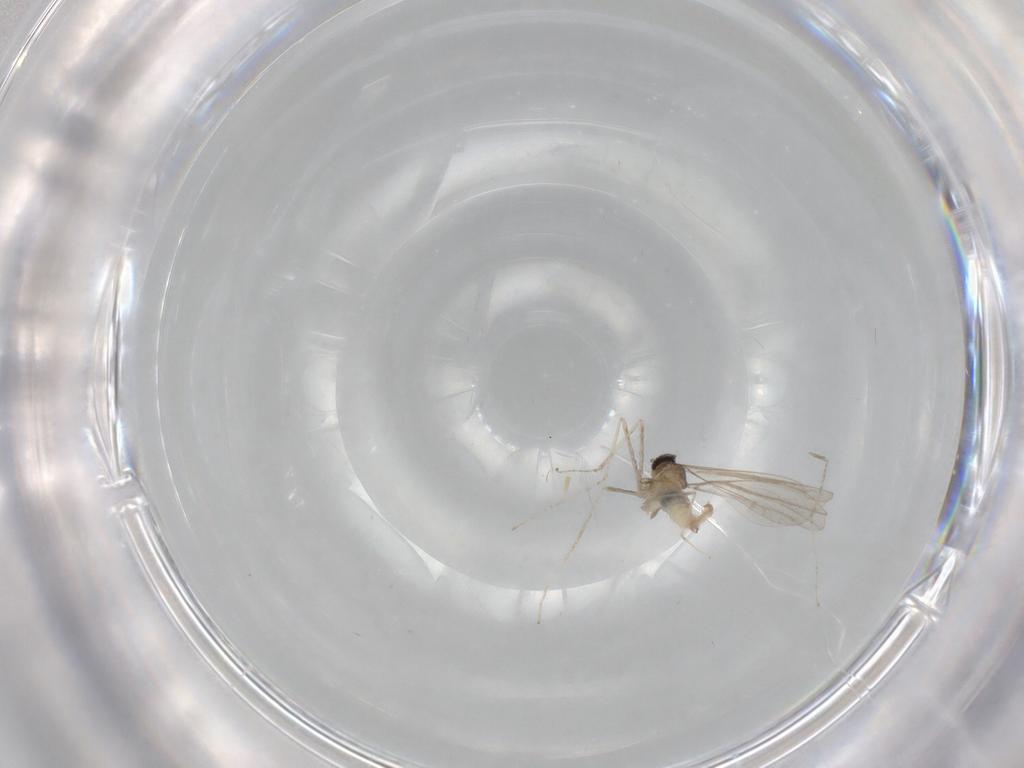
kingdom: Animalia
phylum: Arthropoda
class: Insecta
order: Diptera
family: Cecidomyiidae
